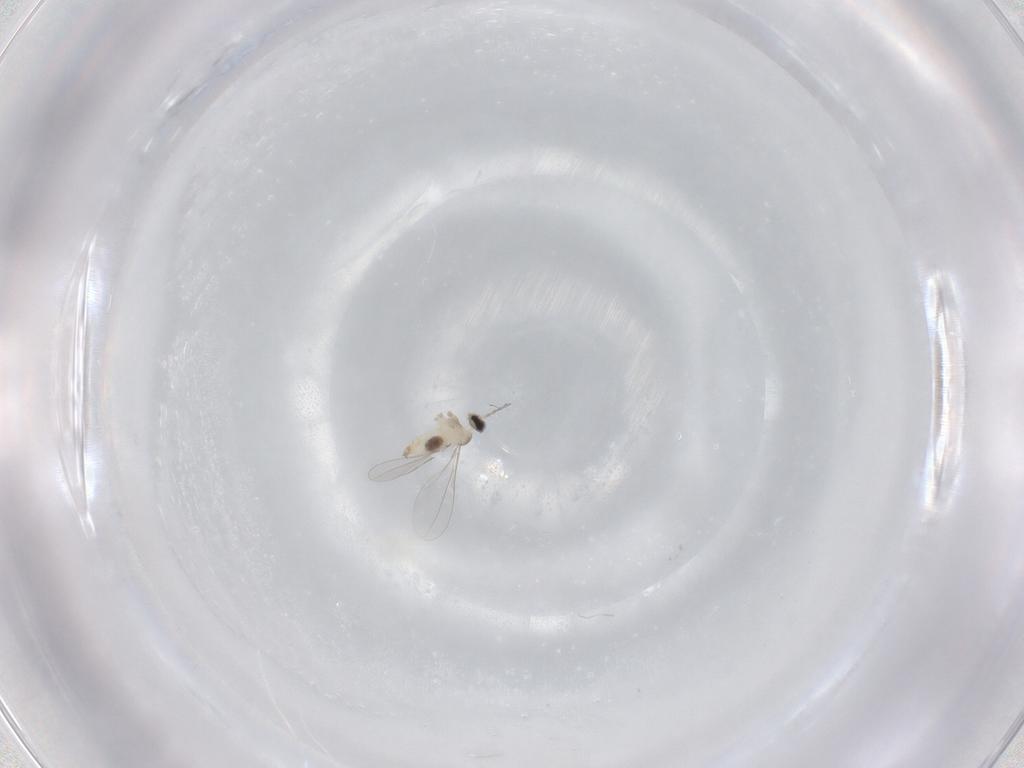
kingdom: Animalia
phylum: Arthropoda
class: Insecta
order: Diptera
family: Cecidomyiidae
